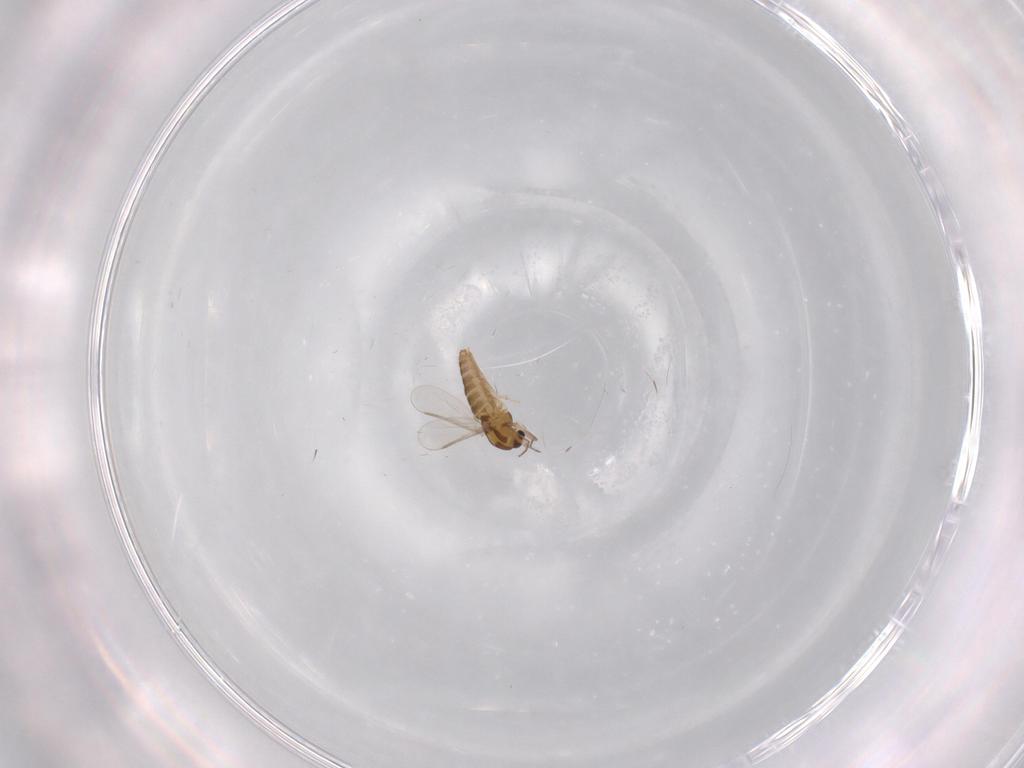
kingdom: Animalia
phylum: Arthropoda
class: Insecta
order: Diptera
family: Chironomidae
